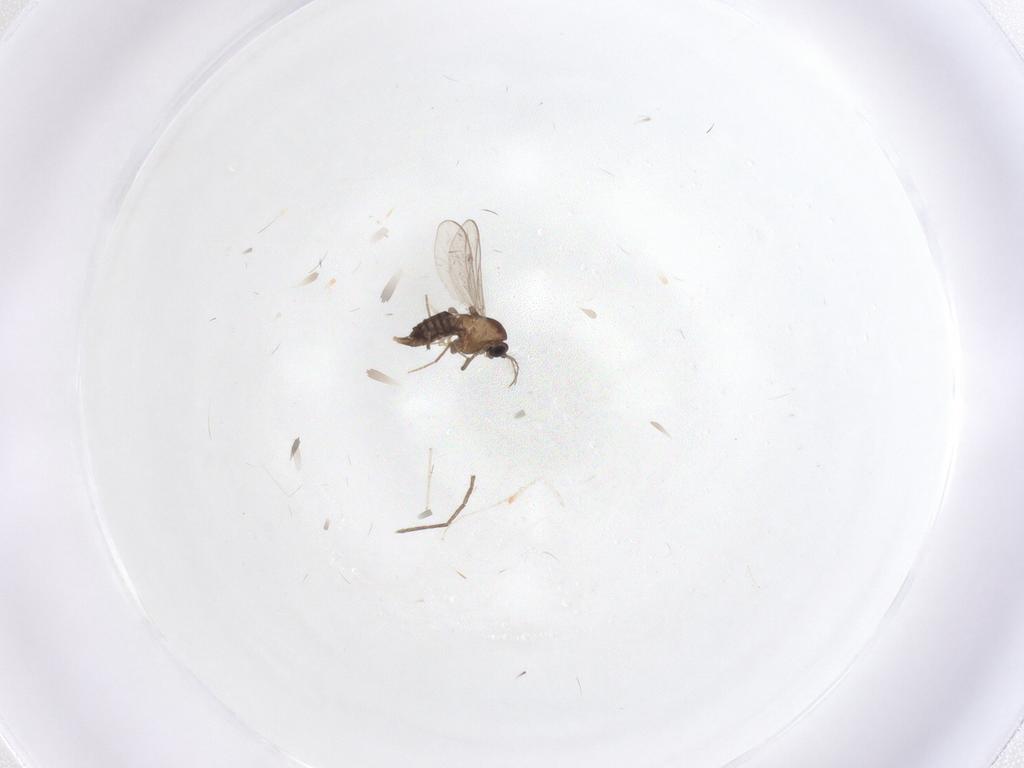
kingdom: Animalia
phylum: Arthropoda
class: Insecta
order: Diptera
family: Chironomidae
